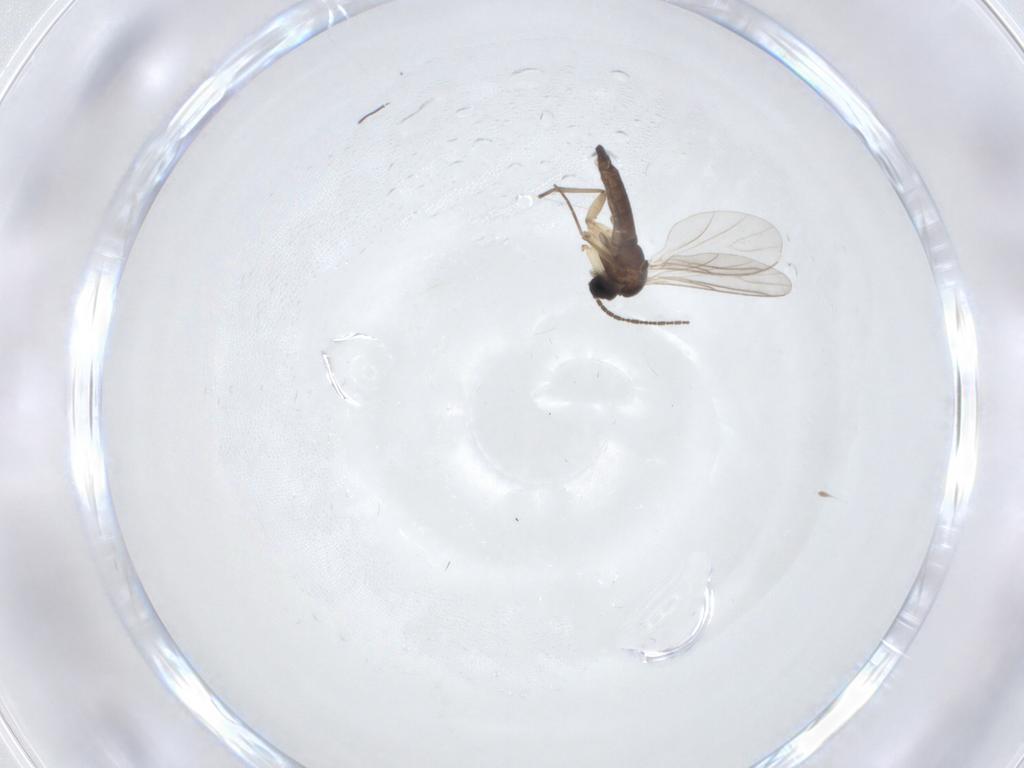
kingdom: Animalia
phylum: Arthropoda
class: Insecta
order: Diptera
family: Sciaridae
